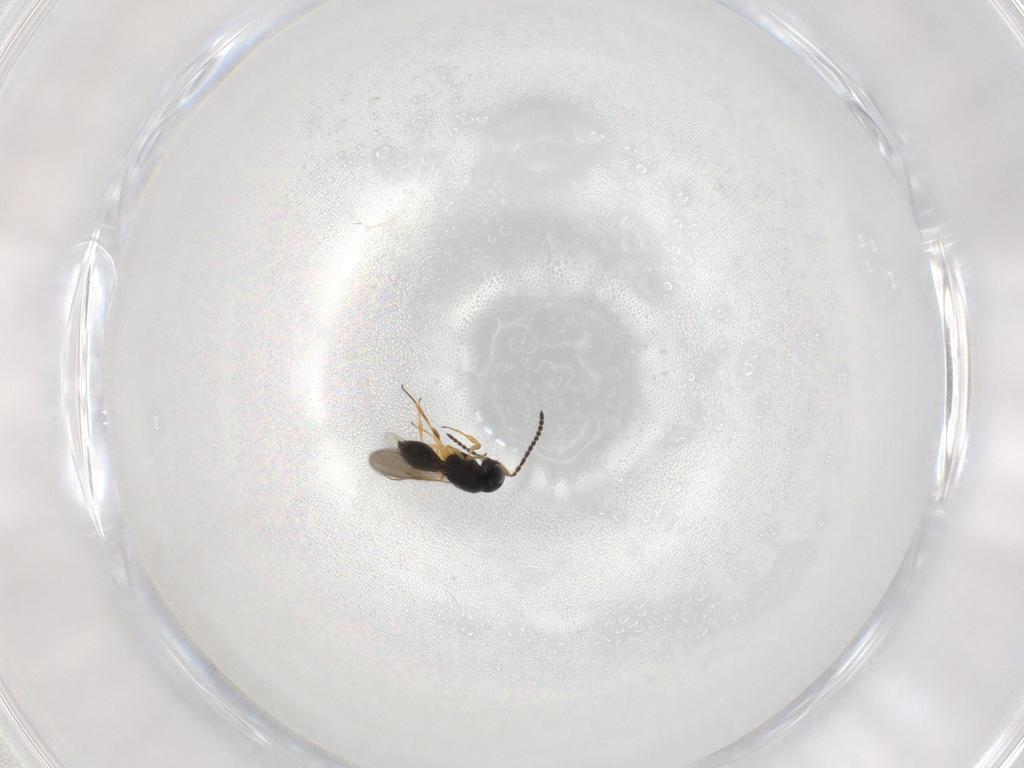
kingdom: Animalia
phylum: Arthropoda
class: Insecta
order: Hymenoptera
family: Scelionidae
